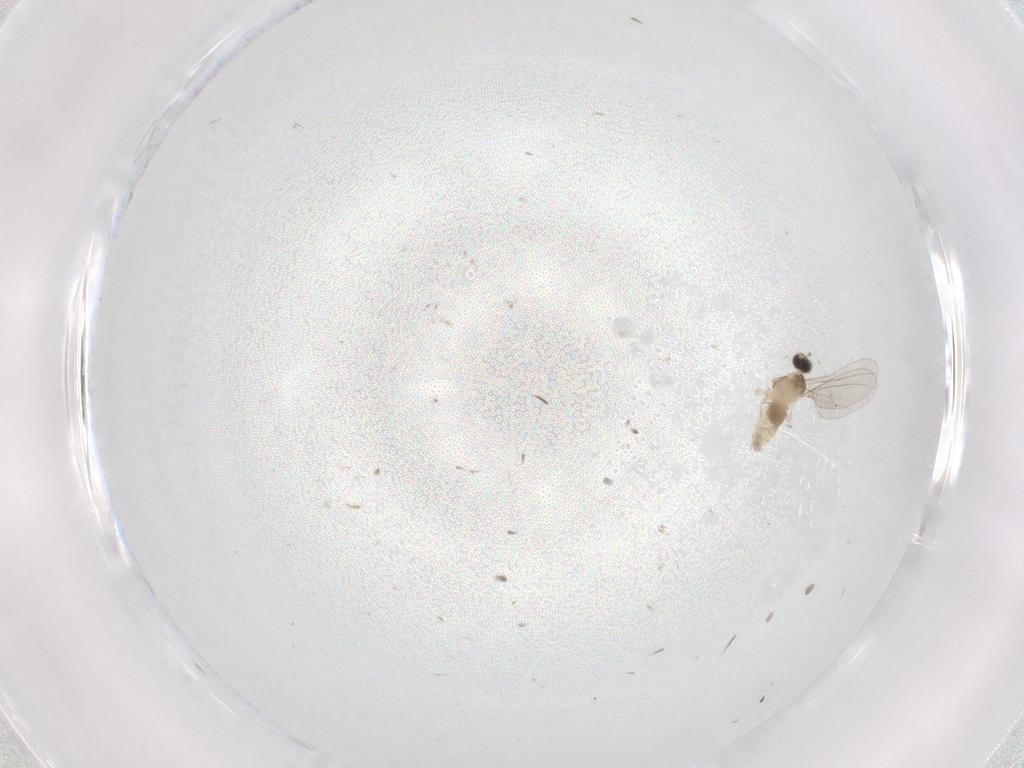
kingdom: Animalia
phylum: Arthropoda
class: Insecta
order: Diptera
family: Cecidomyiidae
